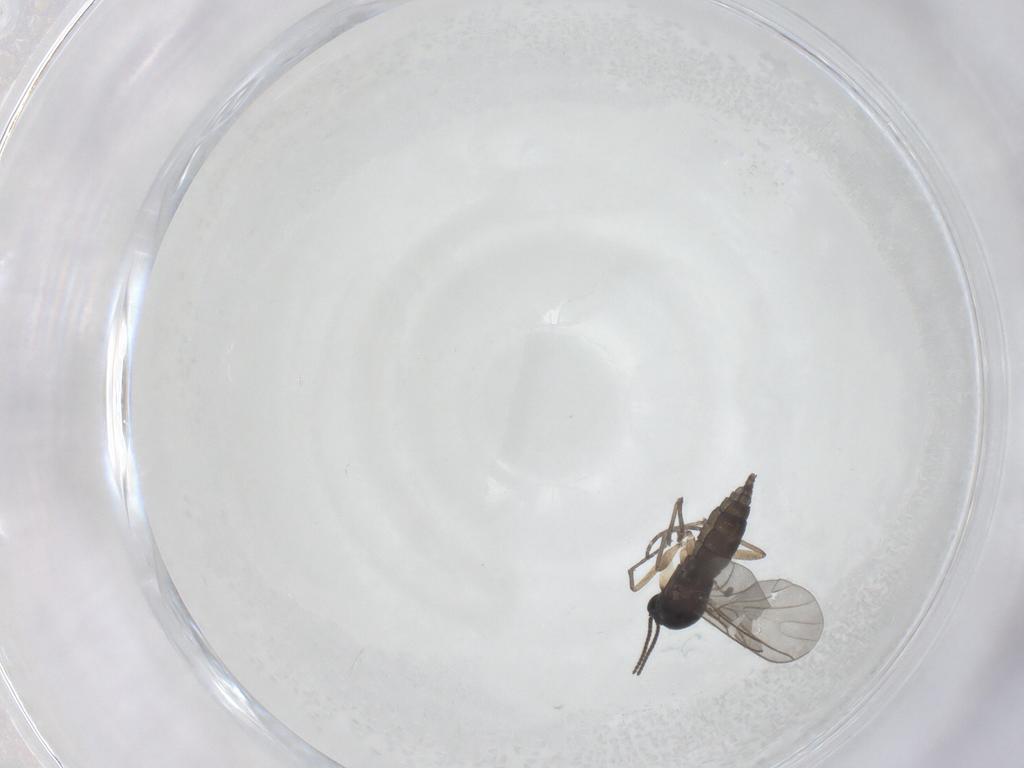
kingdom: Animalia
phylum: Arthropoda
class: Insecta
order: Diptera
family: Sciaridae
